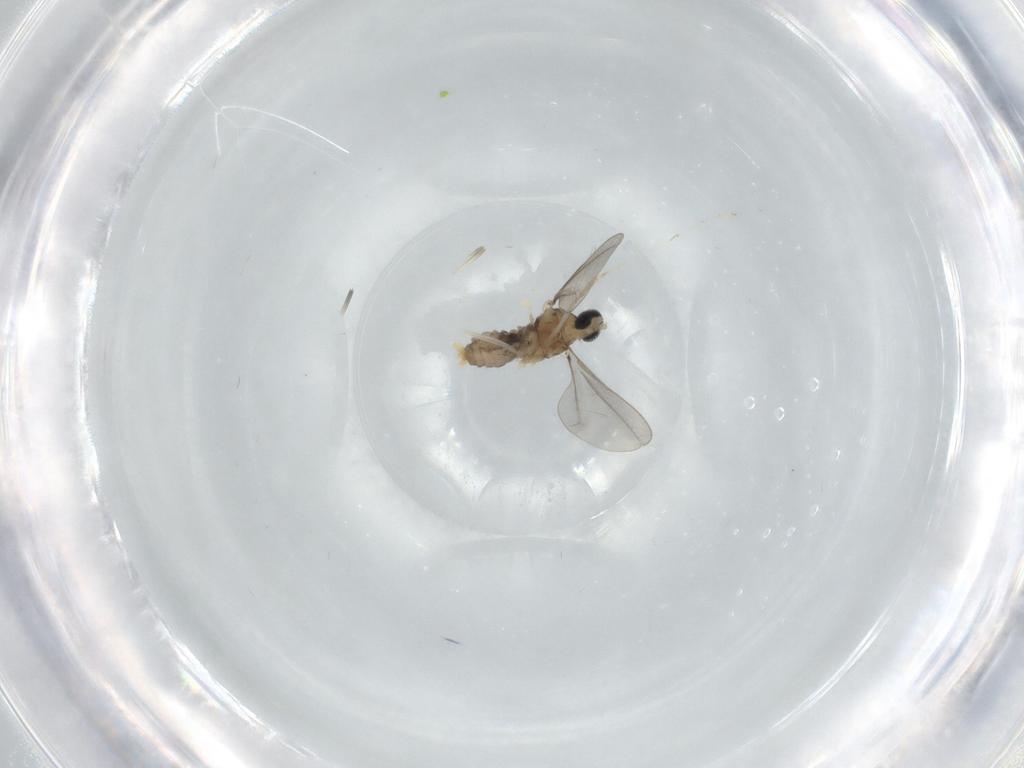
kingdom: Animalia
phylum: Arthropoda
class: Insecta
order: Diptera
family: Cecidomyiidae
